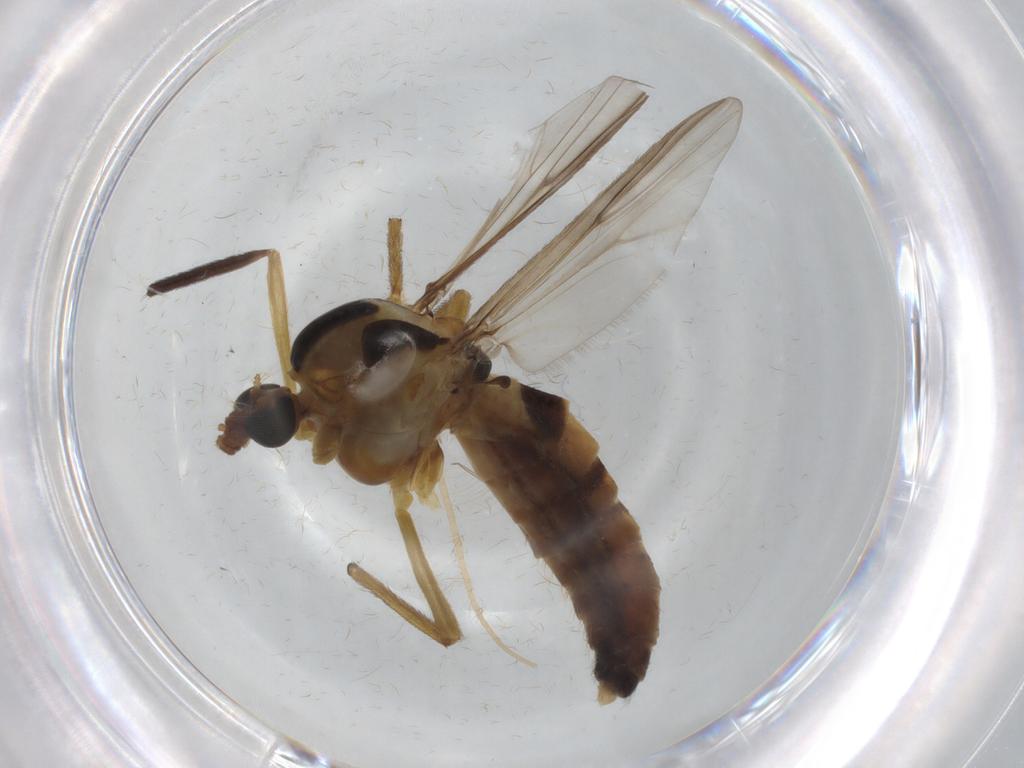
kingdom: Animalia
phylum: Arthropoda
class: Insecta
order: Diptera
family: Chironomidae
